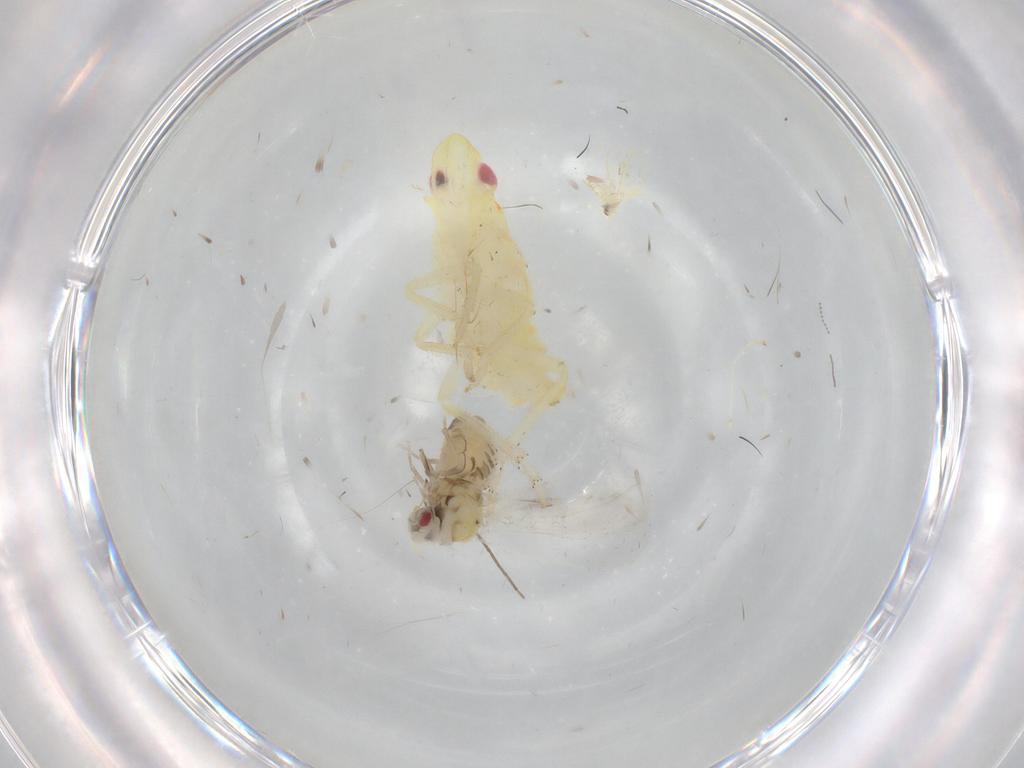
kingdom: Animalia
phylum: Arthropoda
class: Insecta
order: Hemiptera
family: Tropiduchidae
